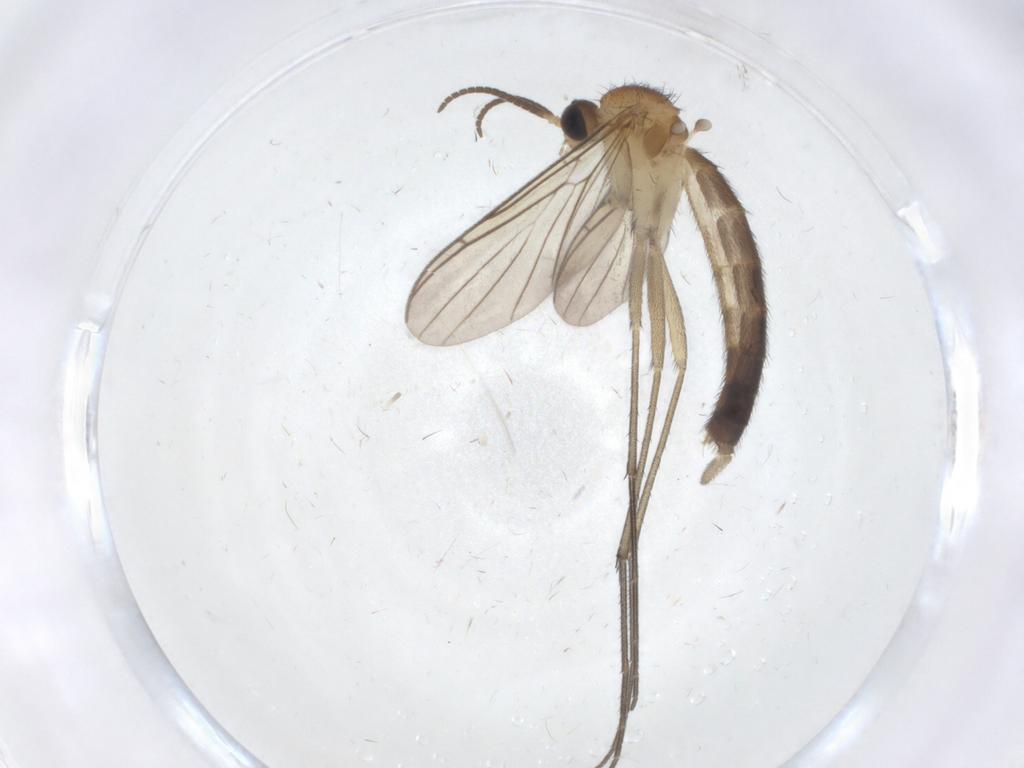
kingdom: Animalia
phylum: Arthropoda
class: Insecta
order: Diptera
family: Keroplatidae
